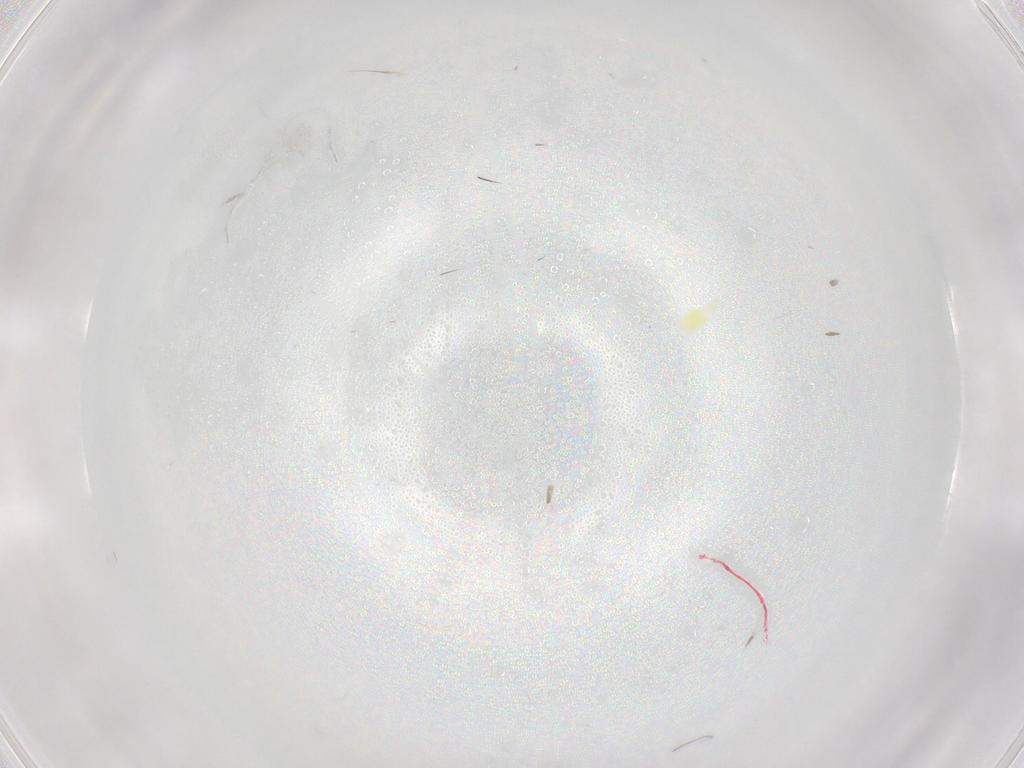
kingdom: Animalia
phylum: Arthropoda
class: Insecta
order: Hemiptera
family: Aleyrodidae
